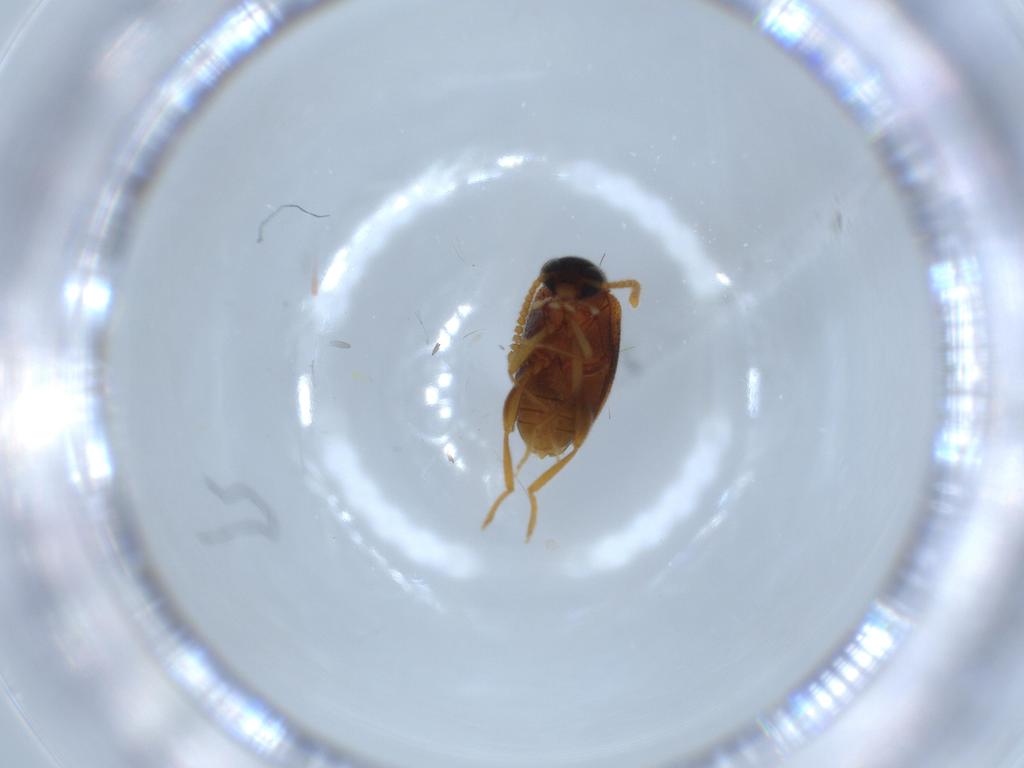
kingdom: Animalia
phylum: Arthropoda
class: Insecta
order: Coleoptera
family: Aderidae
